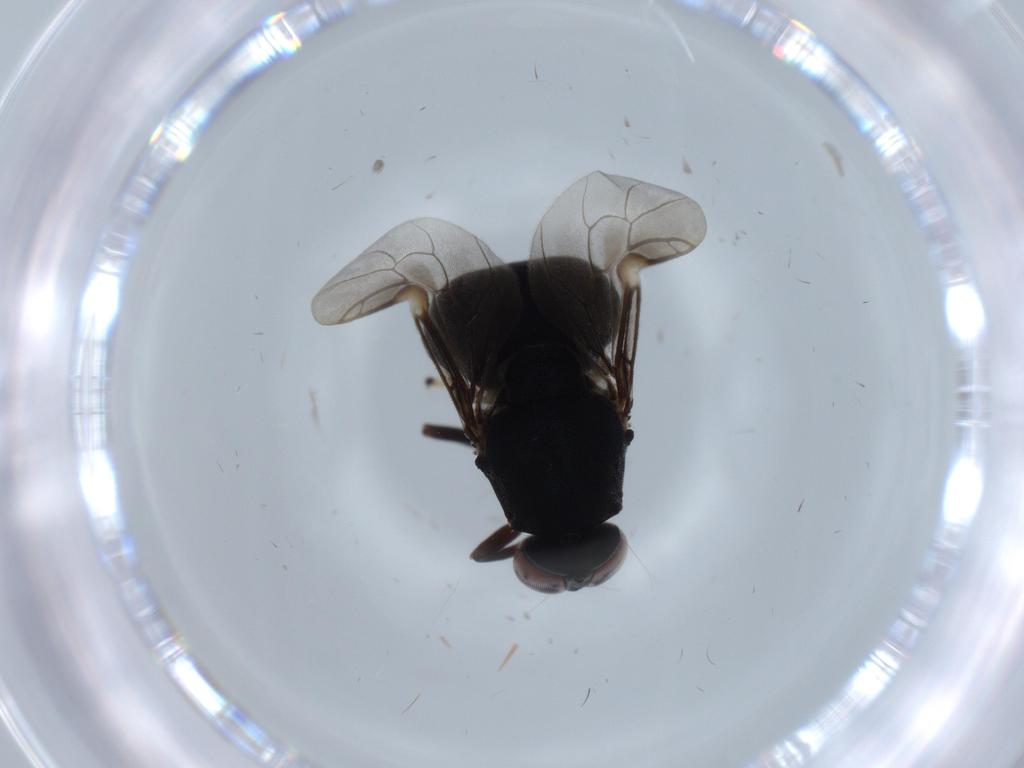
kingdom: Animalia
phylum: Arthropoda
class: Insecta
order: Diptera
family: Stratiomyidae
